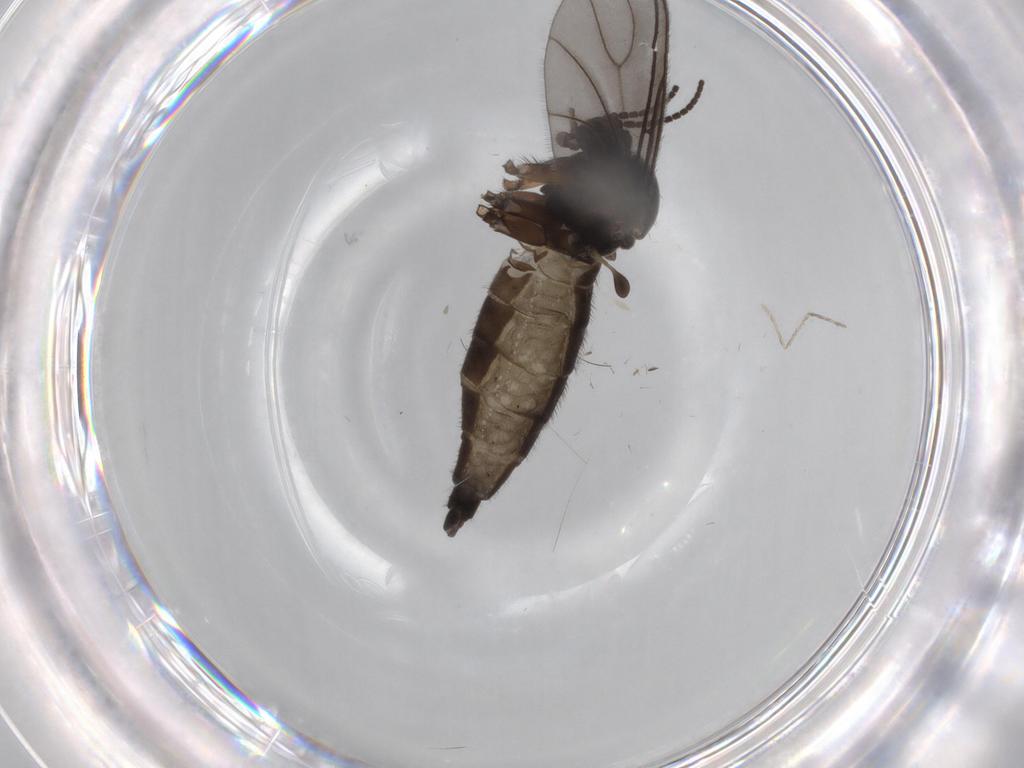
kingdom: Animalia
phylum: Arthropoda
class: Insecta
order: Diptera
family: Sciaridae
